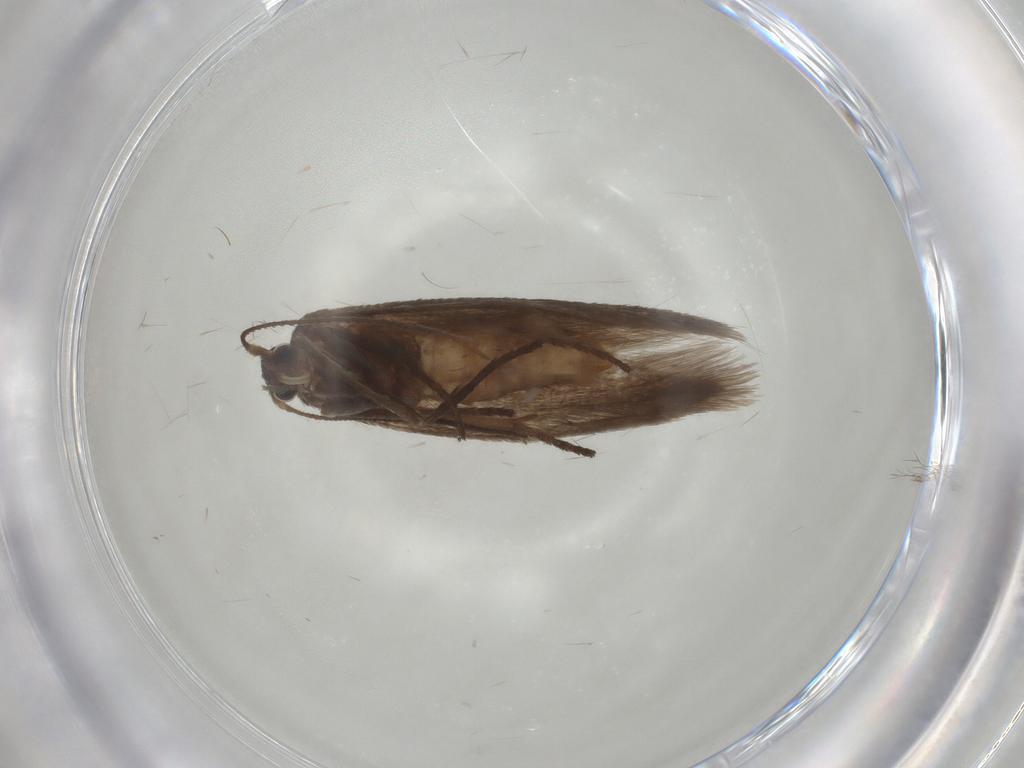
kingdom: Animalia
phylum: Arthropoda
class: Insecta
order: Lepidoptera
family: Limacodidae
